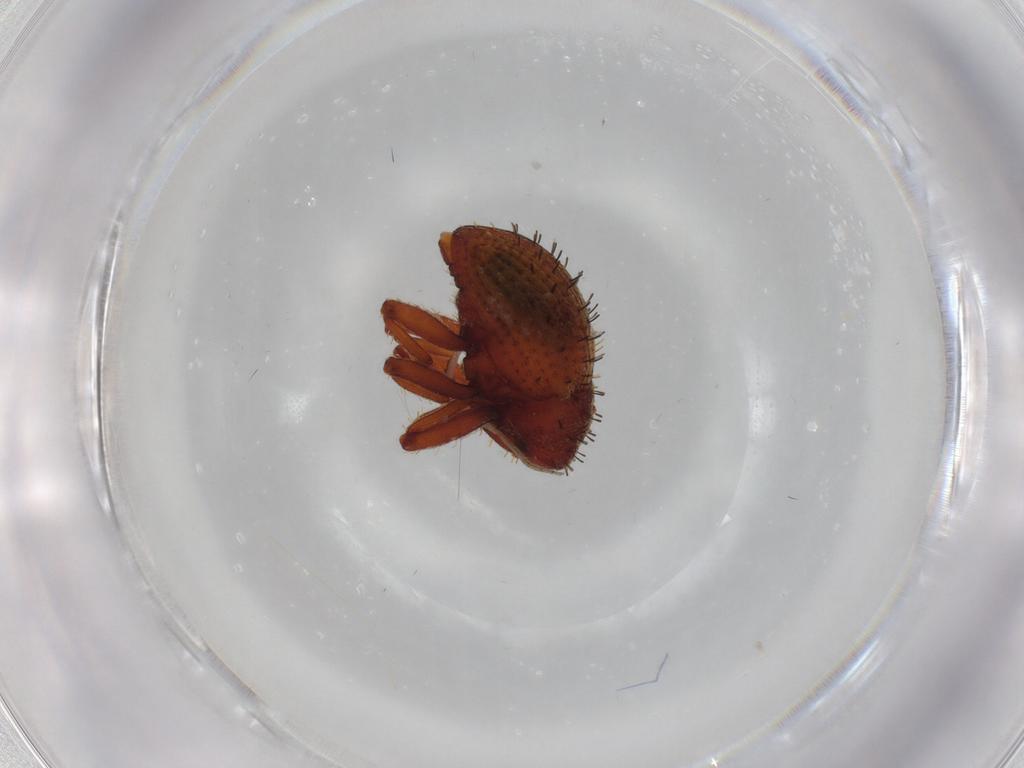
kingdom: Animalia
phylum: Arthropoda
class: Insecta
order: Coleoptera
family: Curculionidae
